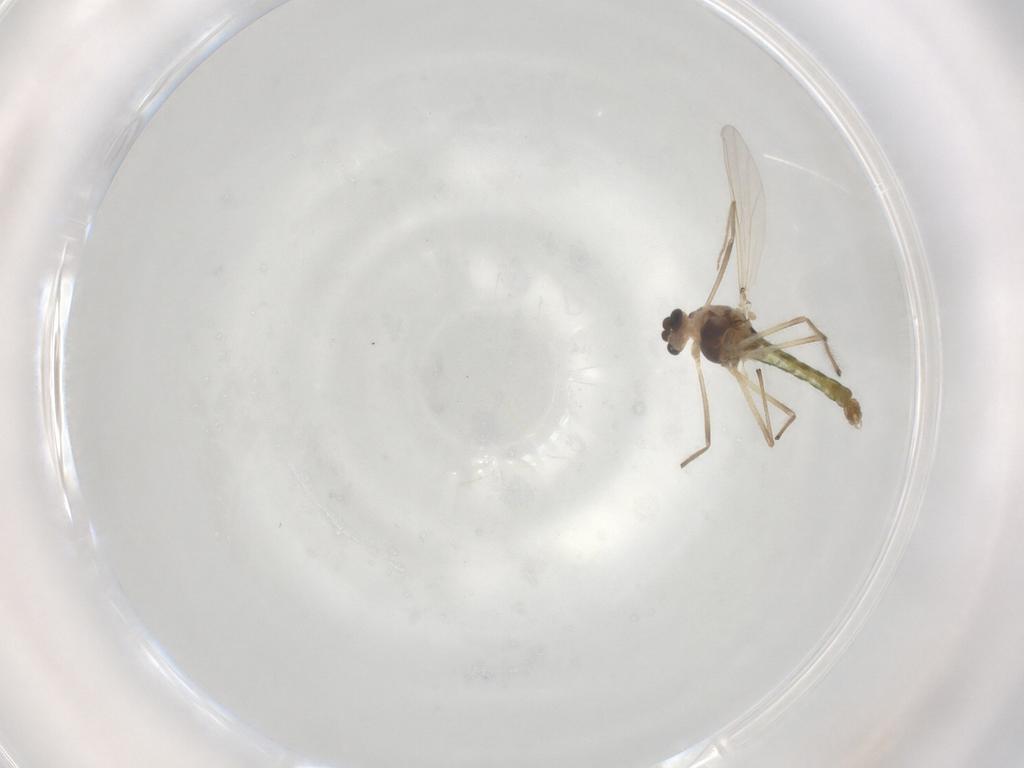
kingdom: Animalia
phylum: Arthropoda
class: Insecta
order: Diptera
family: Chironomidae
